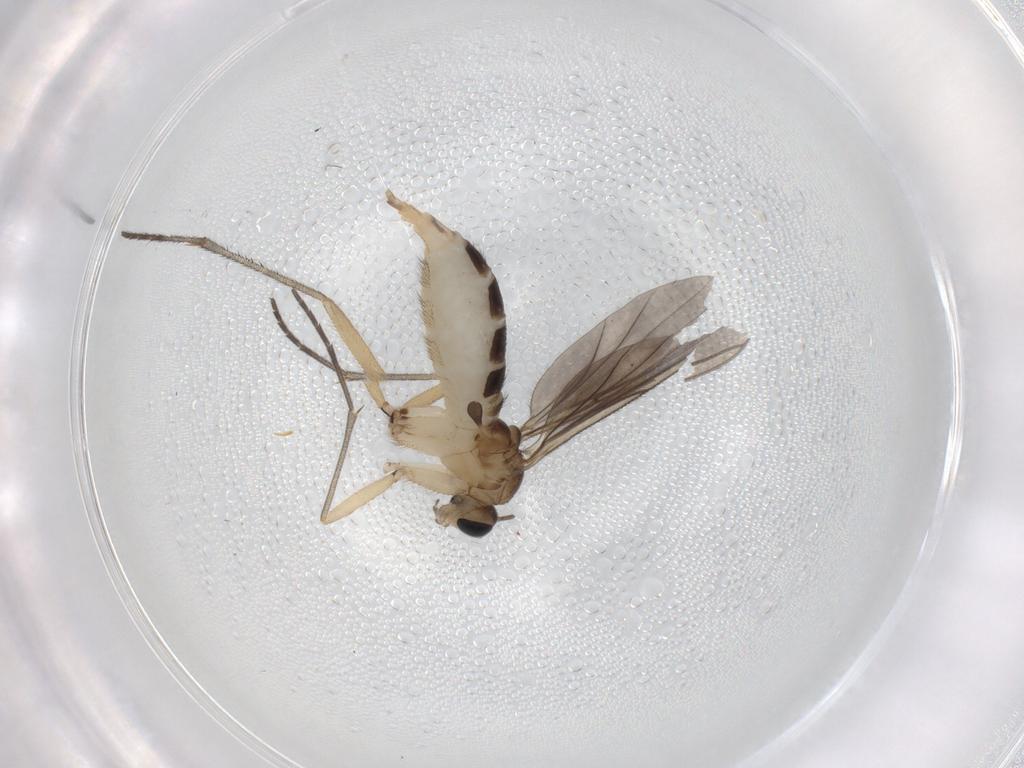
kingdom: Animalia
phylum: Arthropoda
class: Insecta
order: Diptera
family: Sciaridae
